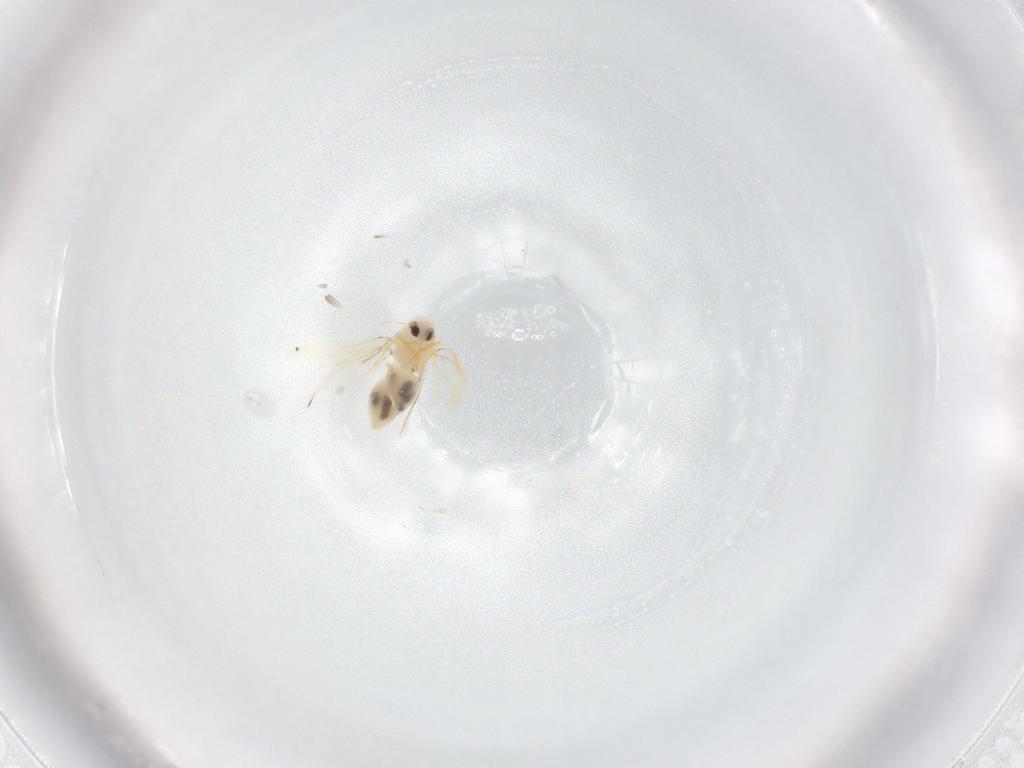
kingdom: Animalia
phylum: Arthropoda
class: Insecta
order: Hemiptera
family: Aleyrodidae
